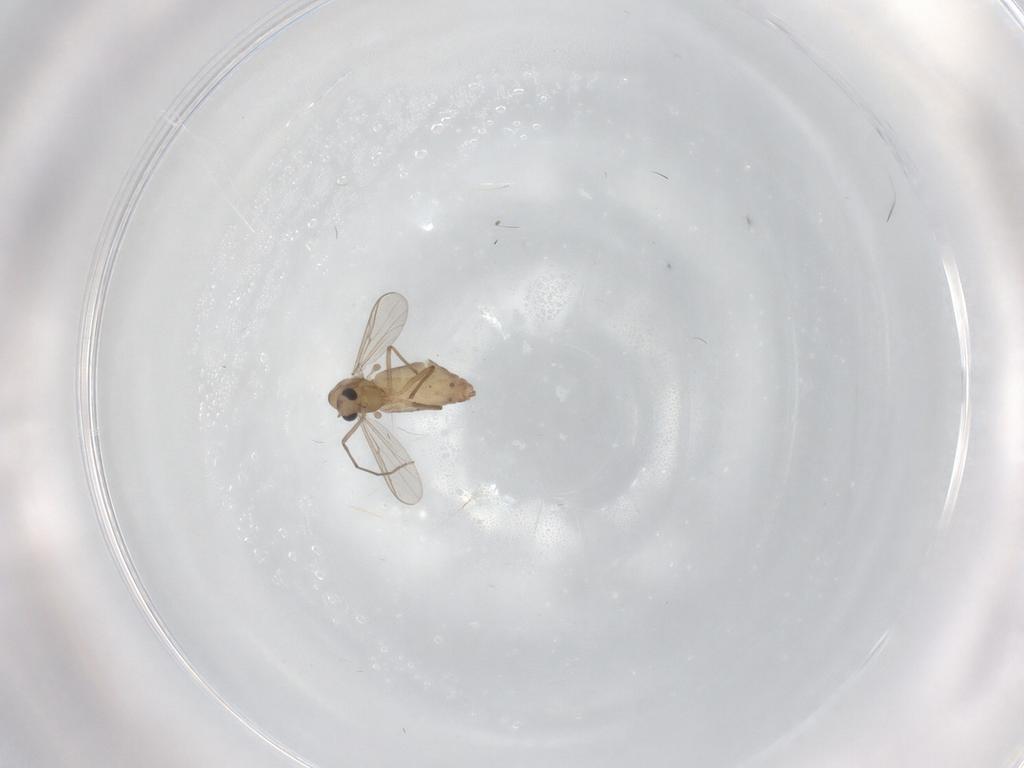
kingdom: Animalia
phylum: Arthropoda
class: Insecta
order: Diptera
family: Chironomidae
